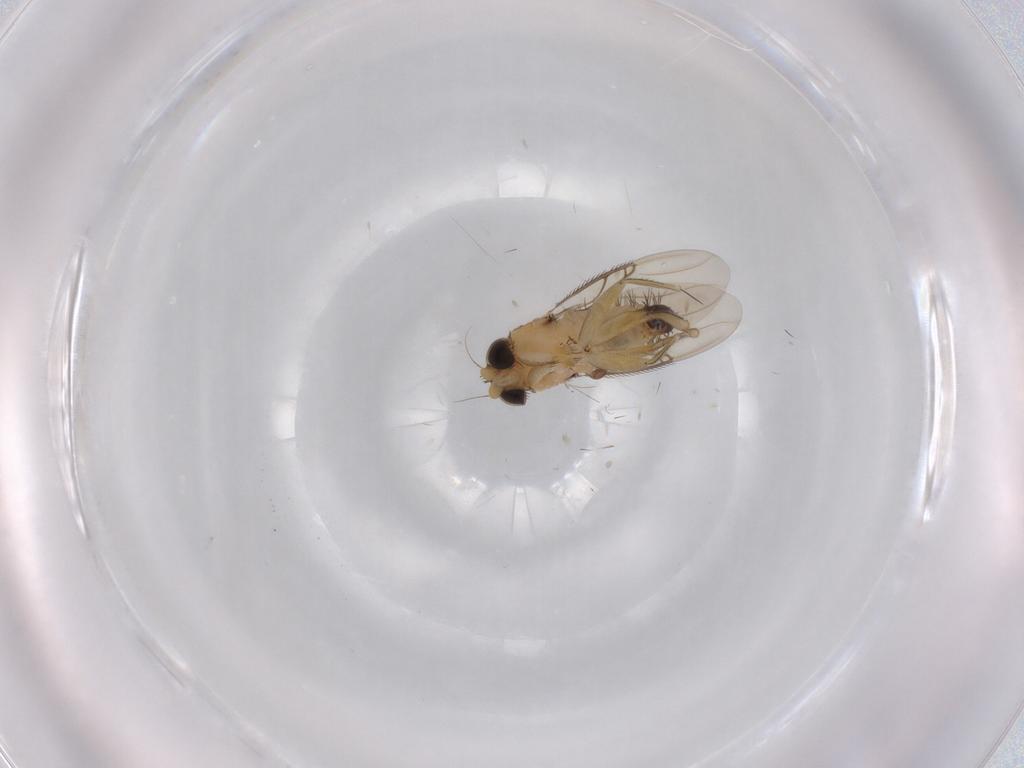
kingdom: Animalia
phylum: Arthropoda
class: Insecta
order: Diptera
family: Phoridae
